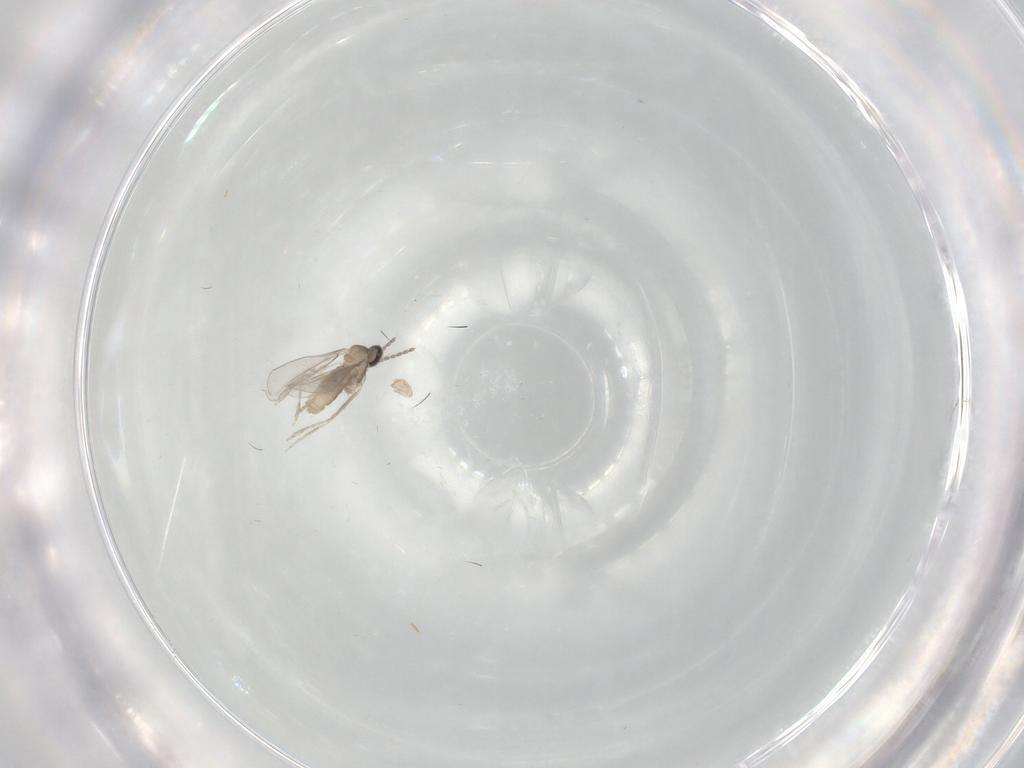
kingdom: Animalia
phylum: Arthropoda
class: Insecta
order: Diptera
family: Cecidomyiidae
